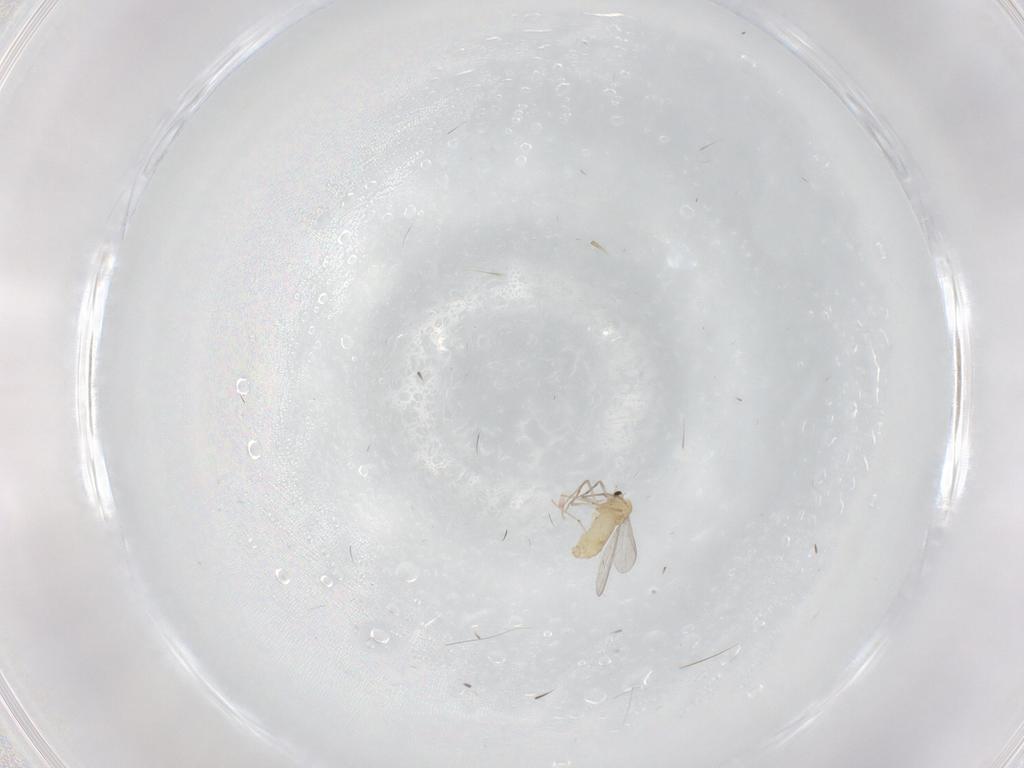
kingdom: Animalia
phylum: Arthropoda
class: Insecta
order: Diptera
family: Chironomidae
